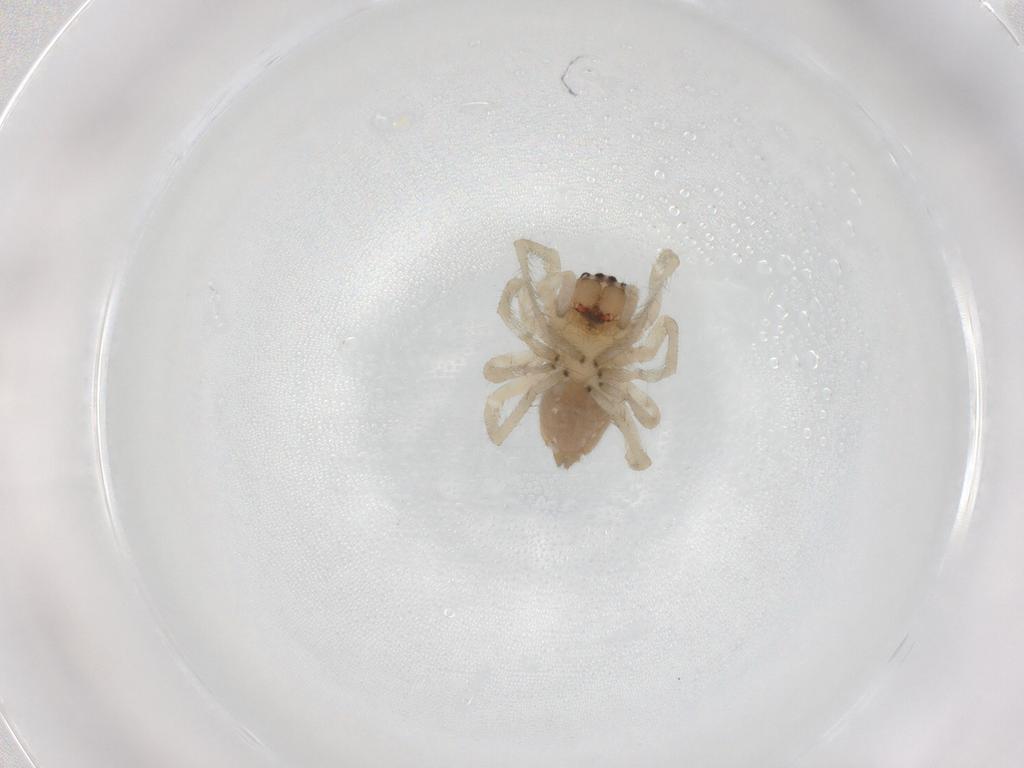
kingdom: Animalia
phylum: Arthropoda
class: Arachnida
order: Araneae
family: Cheiracanthiidae
